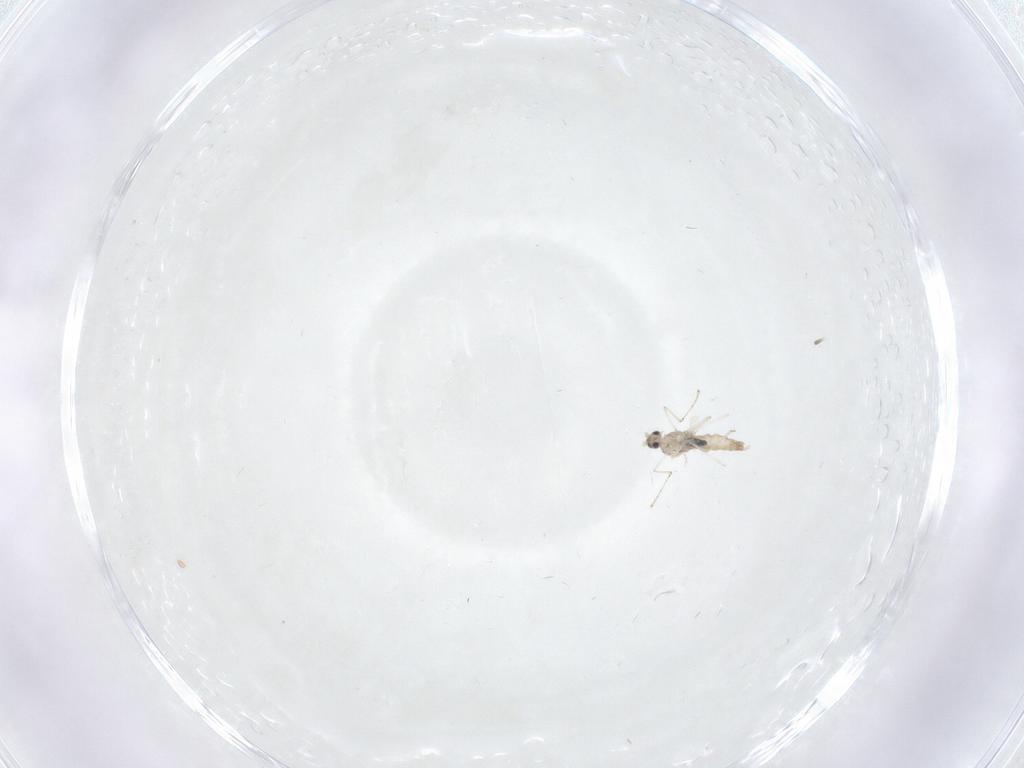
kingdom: Animalia
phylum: Arthropoda
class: Insecta
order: Diptera
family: Cecidomyiidae
